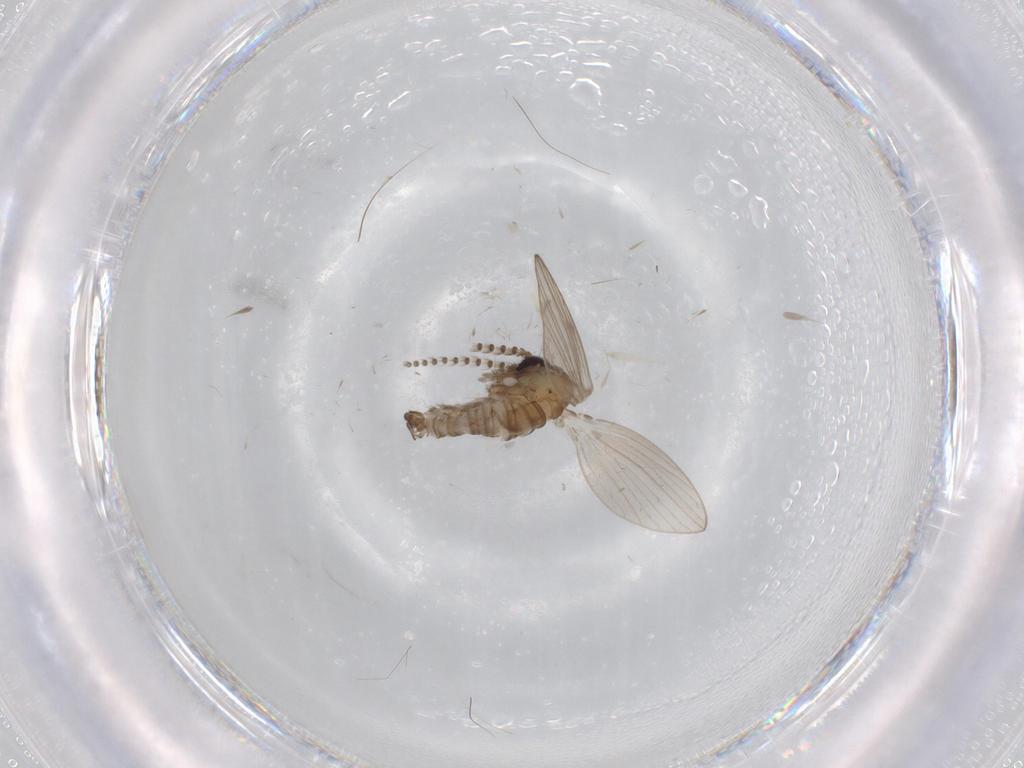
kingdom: Animalia
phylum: Arthropoda
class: Insecta
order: Diptera
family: Psychodidae
